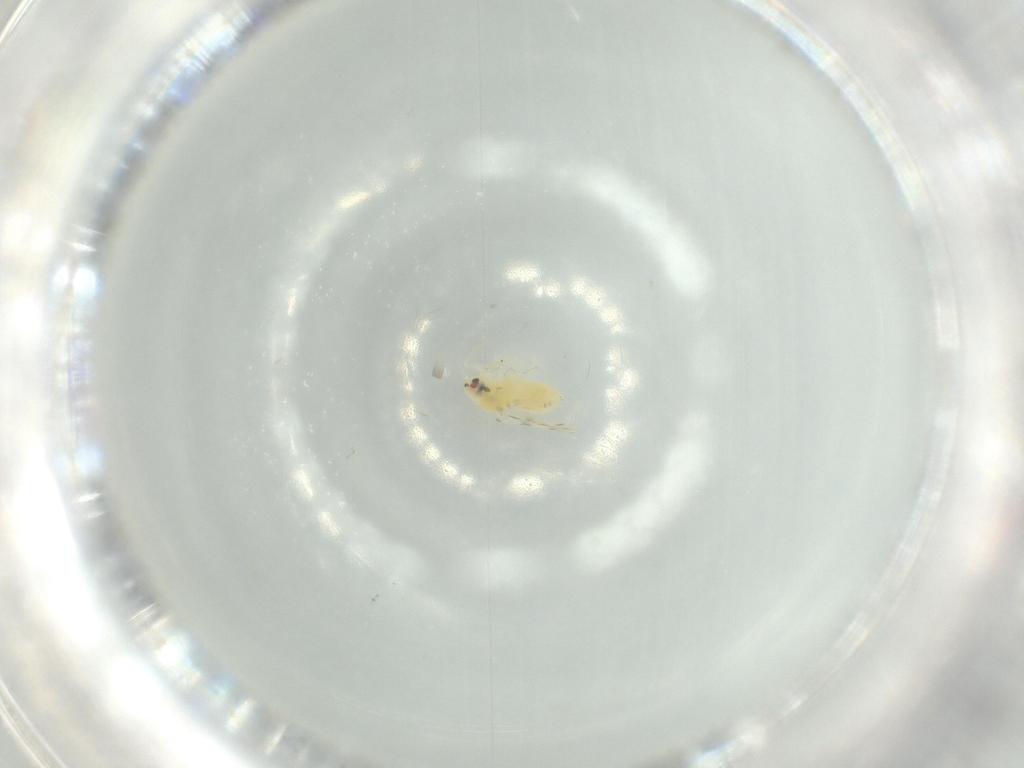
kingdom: Animalia
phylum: Arthropoda
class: Insecta
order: Hemiptera
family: Aleyrodidae
